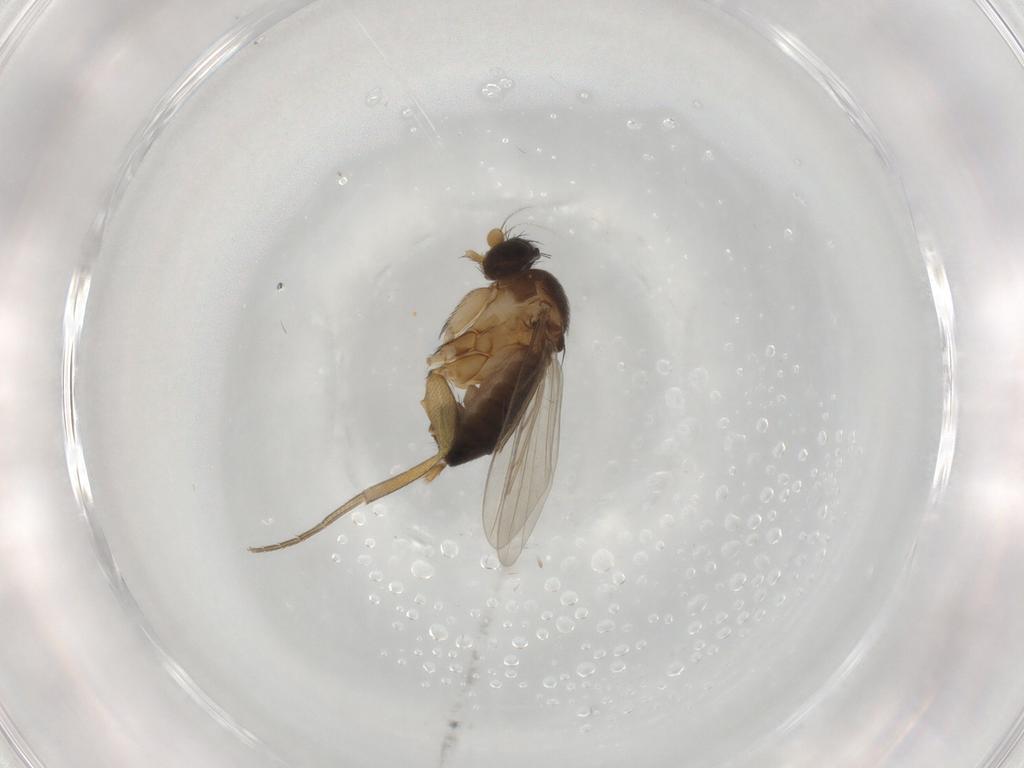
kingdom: Animalia
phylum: Arthropoda
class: Insecta
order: Diptera
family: Phoridae
